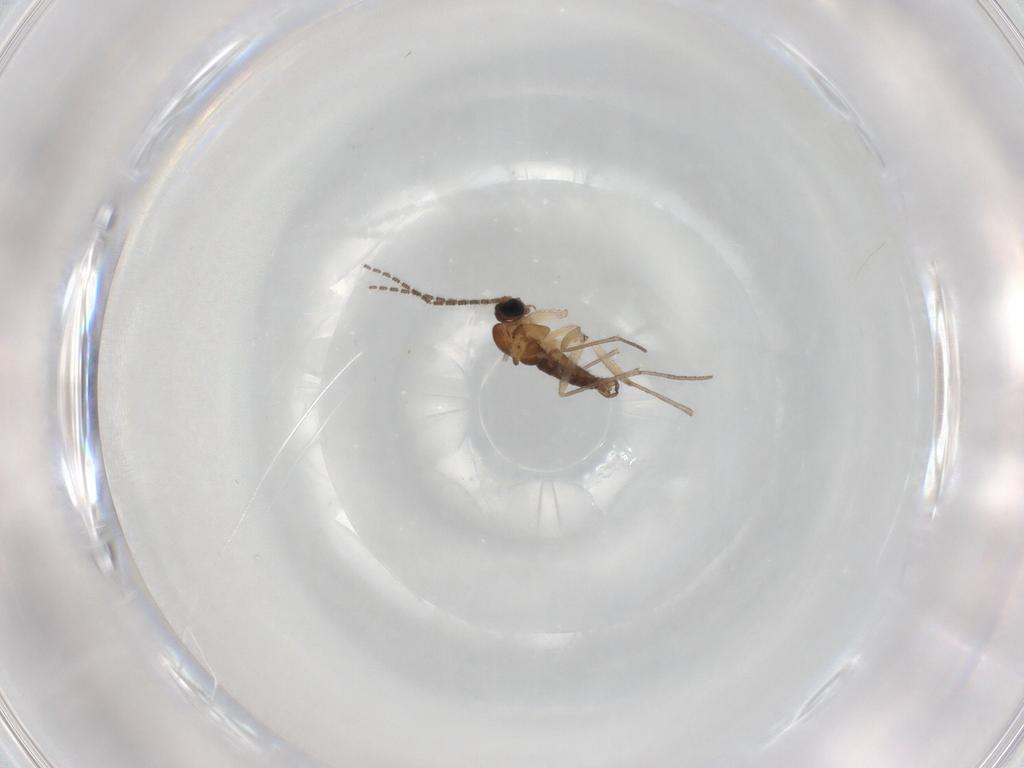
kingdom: Animalia
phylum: Arthropoda
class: Insecta
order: Diptera
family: Sciaridae
